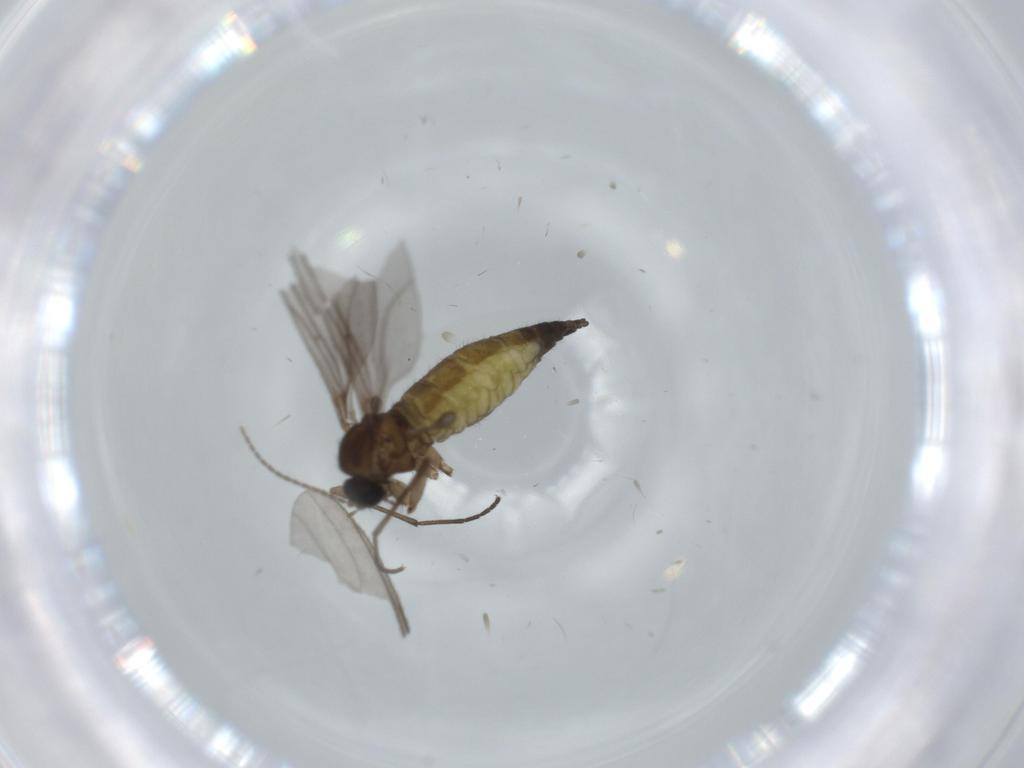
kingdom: Animalia
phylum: Arthropoda
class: Insecta
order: Diptera
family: Sciaridae
